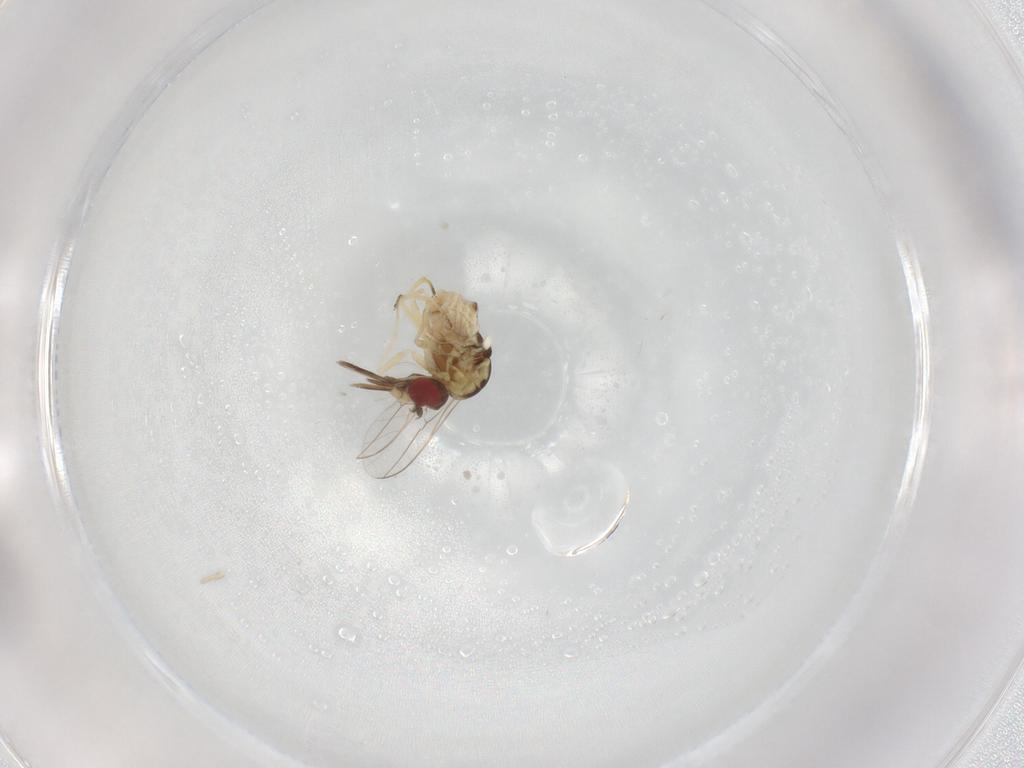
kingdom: Animalia
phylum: Arthropoda
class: Insecta
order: Diptera
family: Bombyliidae
